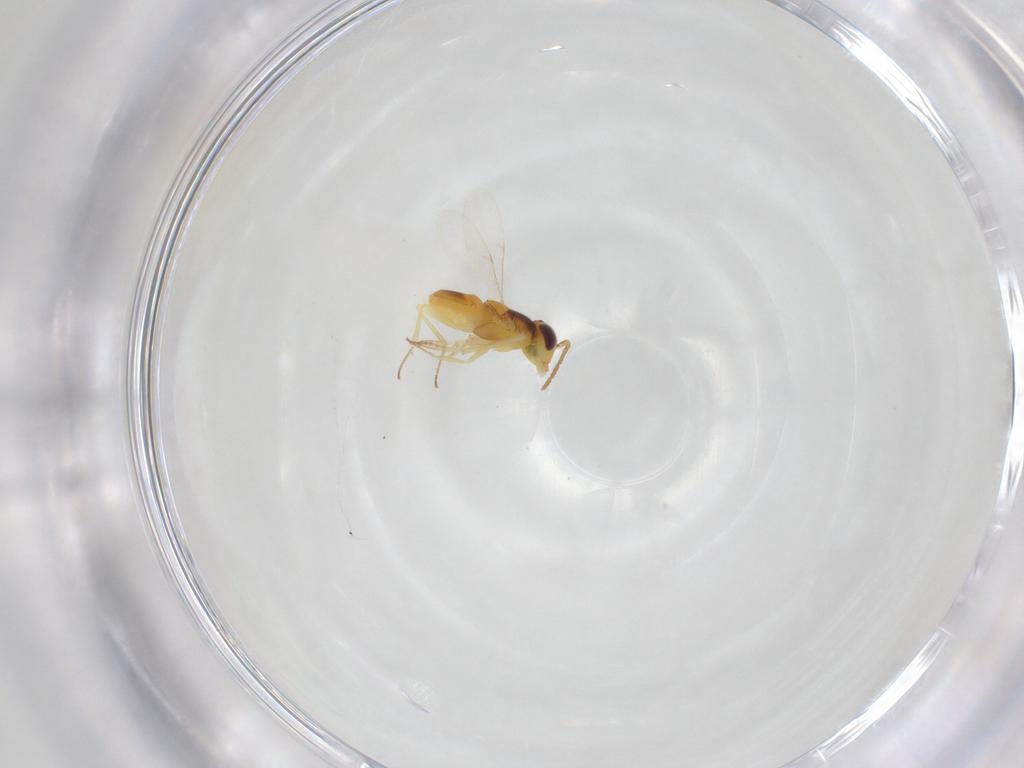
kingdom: Animalia
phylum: Arthropoda
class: Insecta
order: Hymenoptera
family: Encyrtidae
